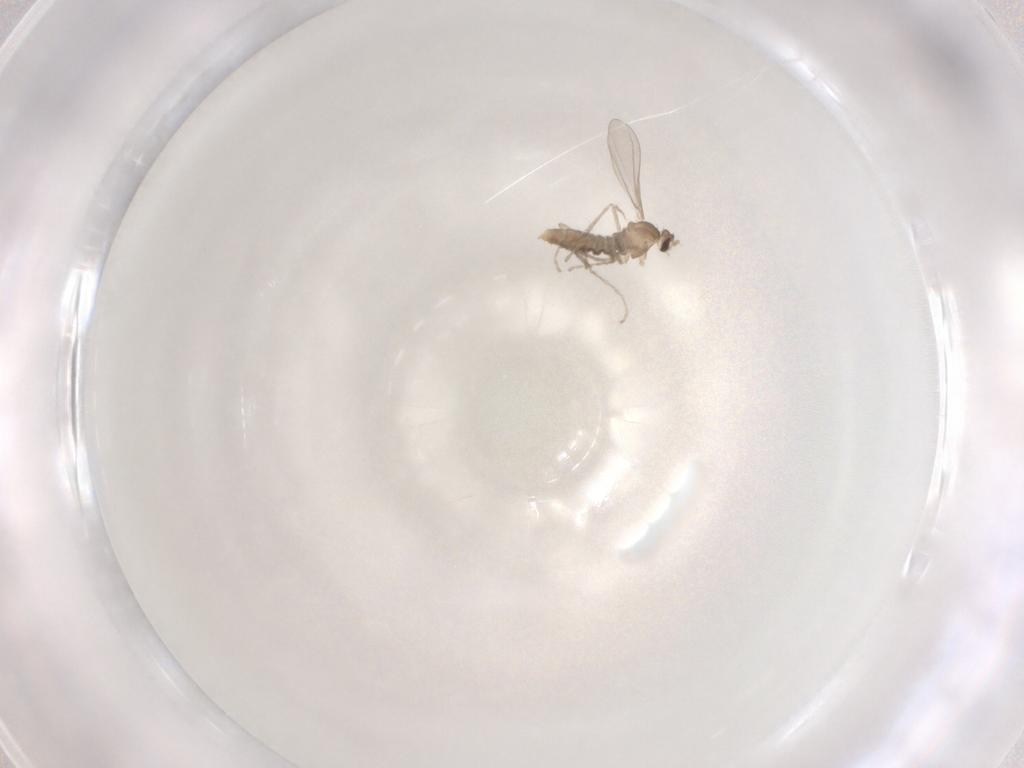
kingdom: Animalia
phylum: Arthropoda
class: Insecta
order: Diptera
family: Cecidomyiidae
